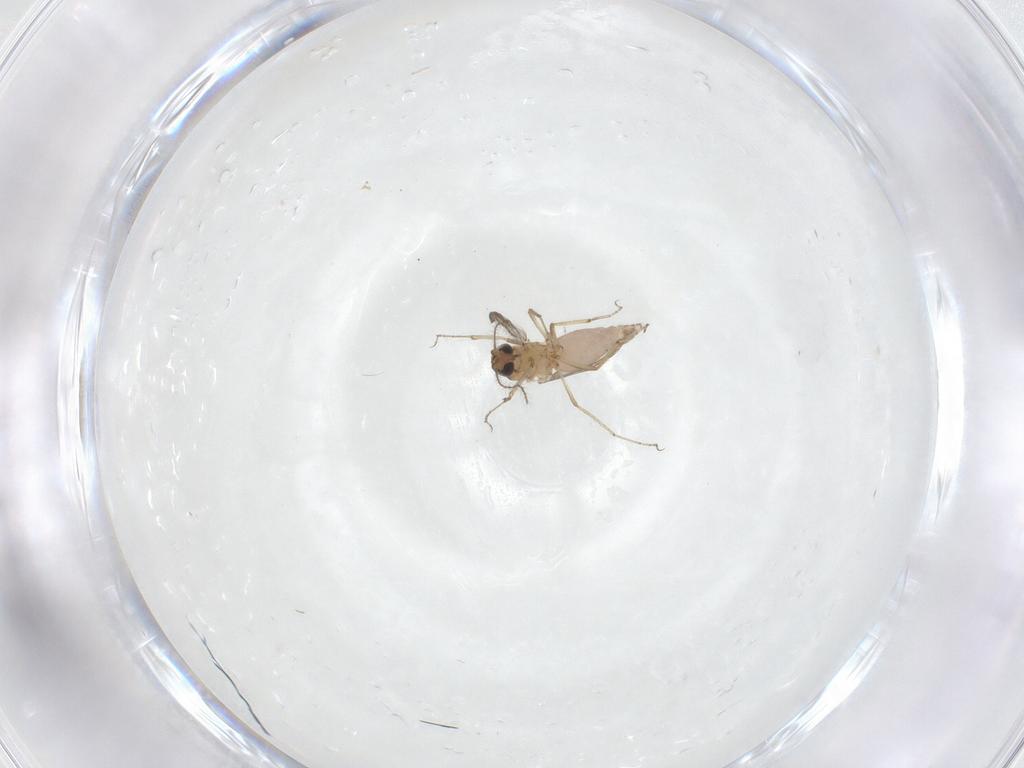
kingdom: Animalia
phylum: Arthropoda
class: Insecta
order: Diptera
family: Ceratopogonidae
